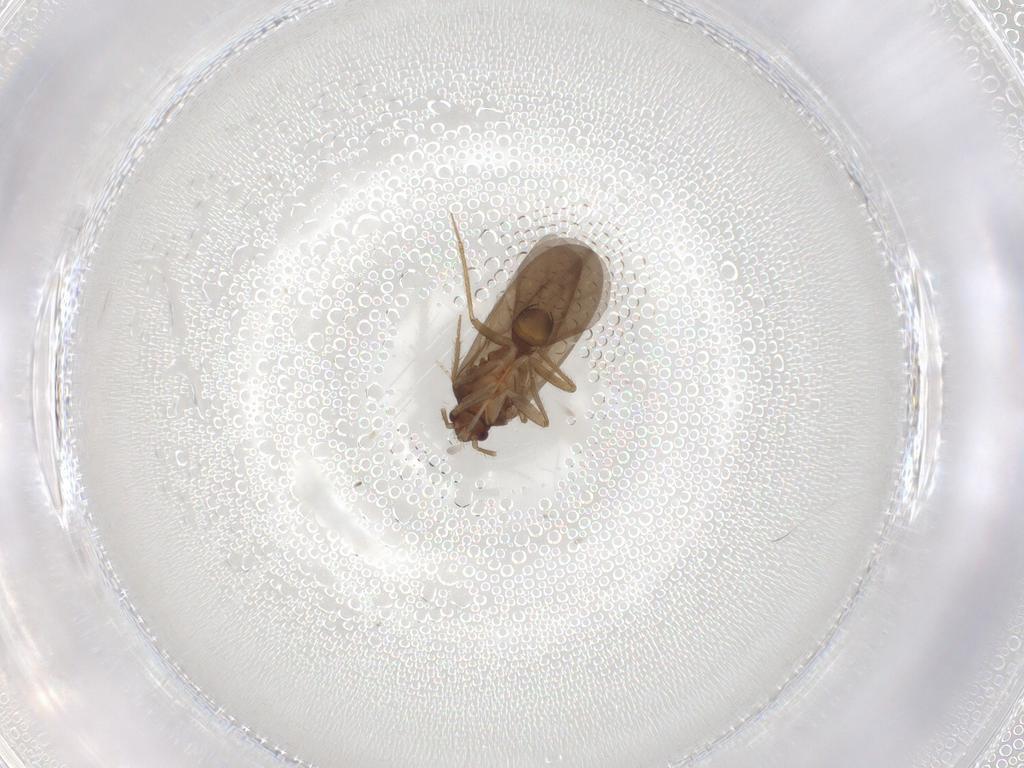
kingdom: Animalia
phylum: Arthropoda
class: Insecta
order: Hemiptera
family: Ceratocombidae
